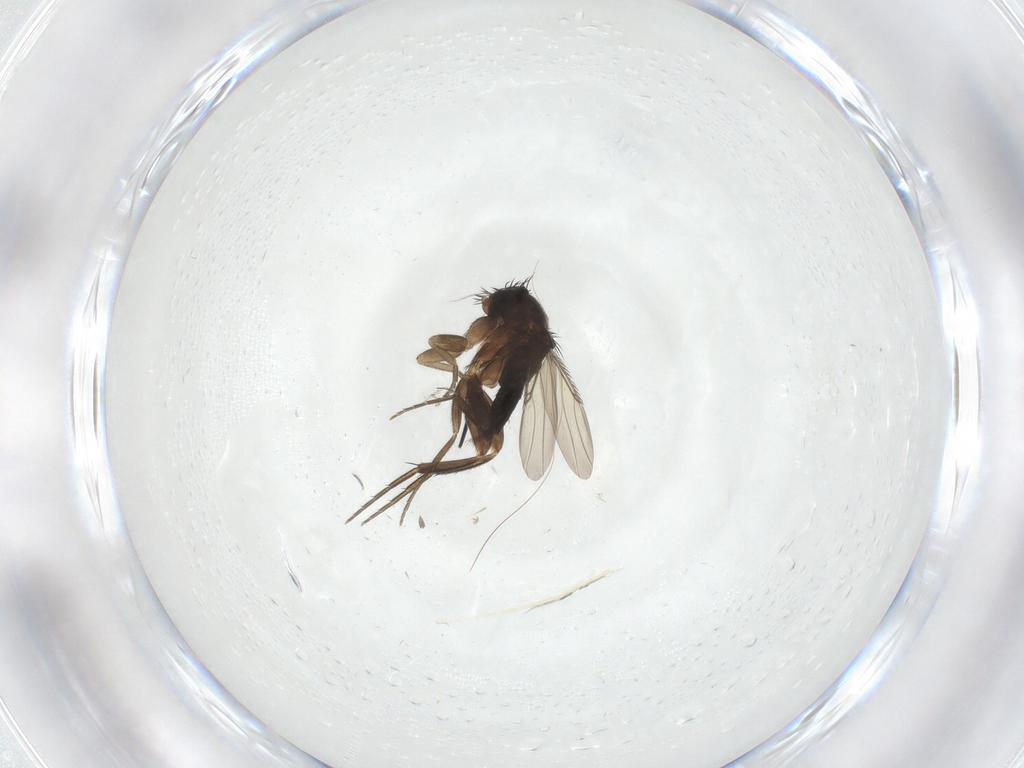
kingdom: Animalia
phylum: Arthropoda
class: Insecta
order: Diptera
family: Phoridae
